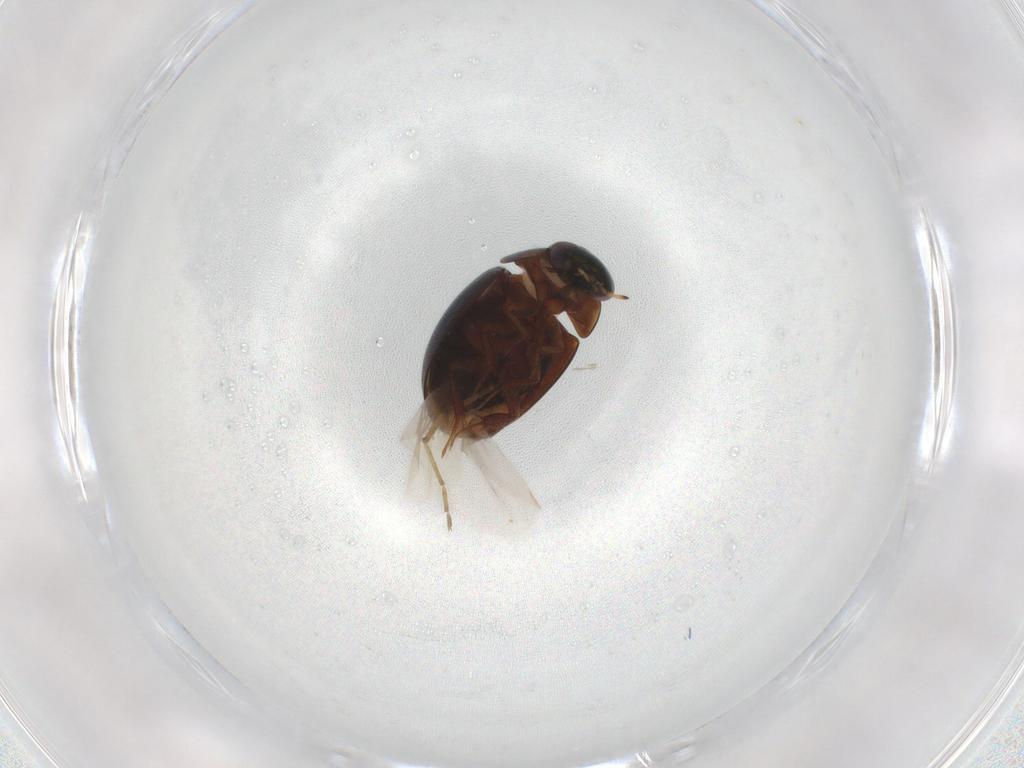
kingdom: Animalia
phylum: Arthropoda
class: Insecta
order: Coleoptera
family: Hydrophilidae
